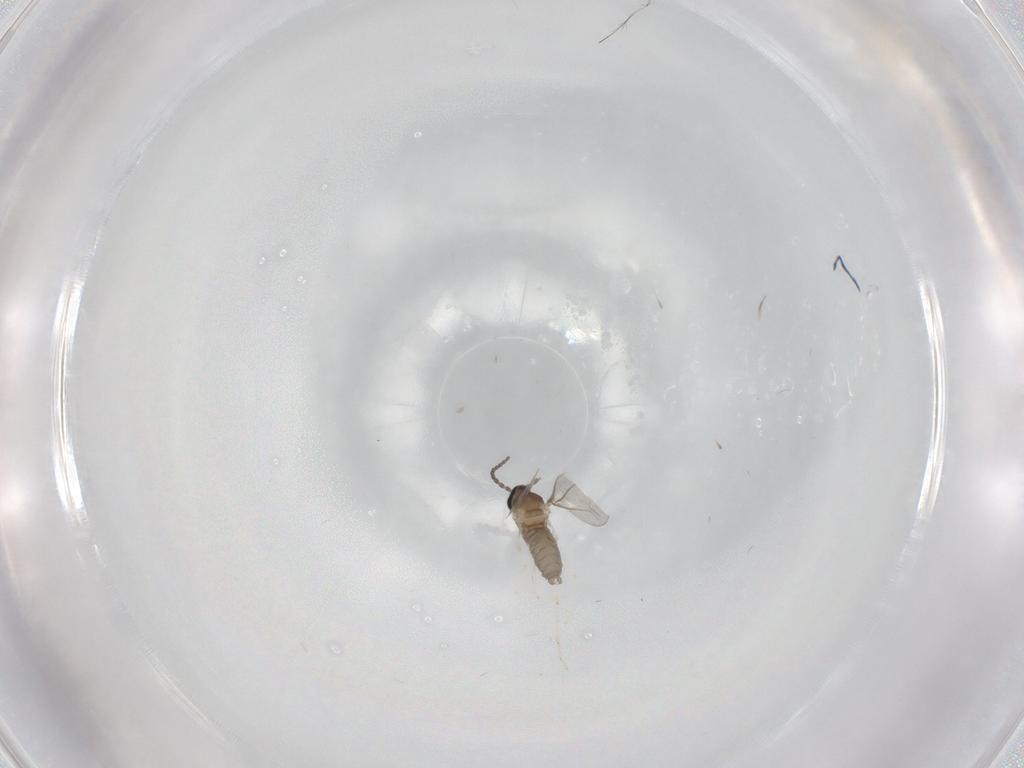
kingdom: Animalia
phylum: Arthropoda
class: Insecta
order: Diptera
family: Cecidomyiidae
